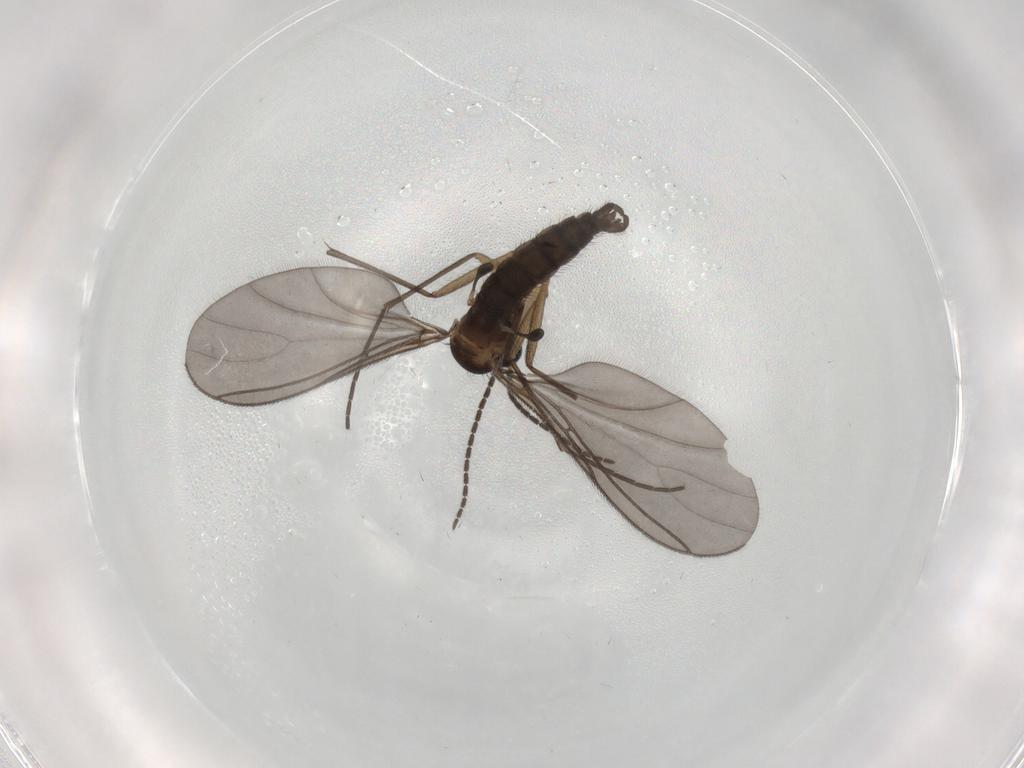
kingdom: Animalia
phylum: Arthropoda
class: Insecta
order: Diptera
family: Sciaridae
